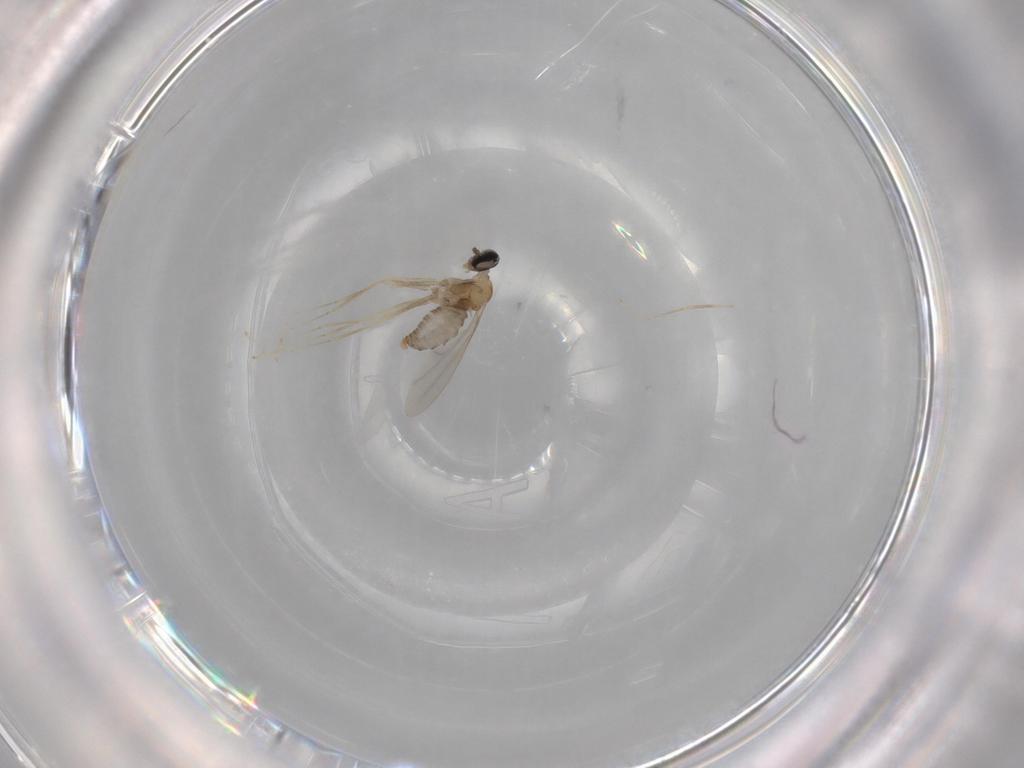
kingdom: Animalia
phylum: Arthropoda
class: Insecta
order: Diptera
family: Cecidomyiidae
